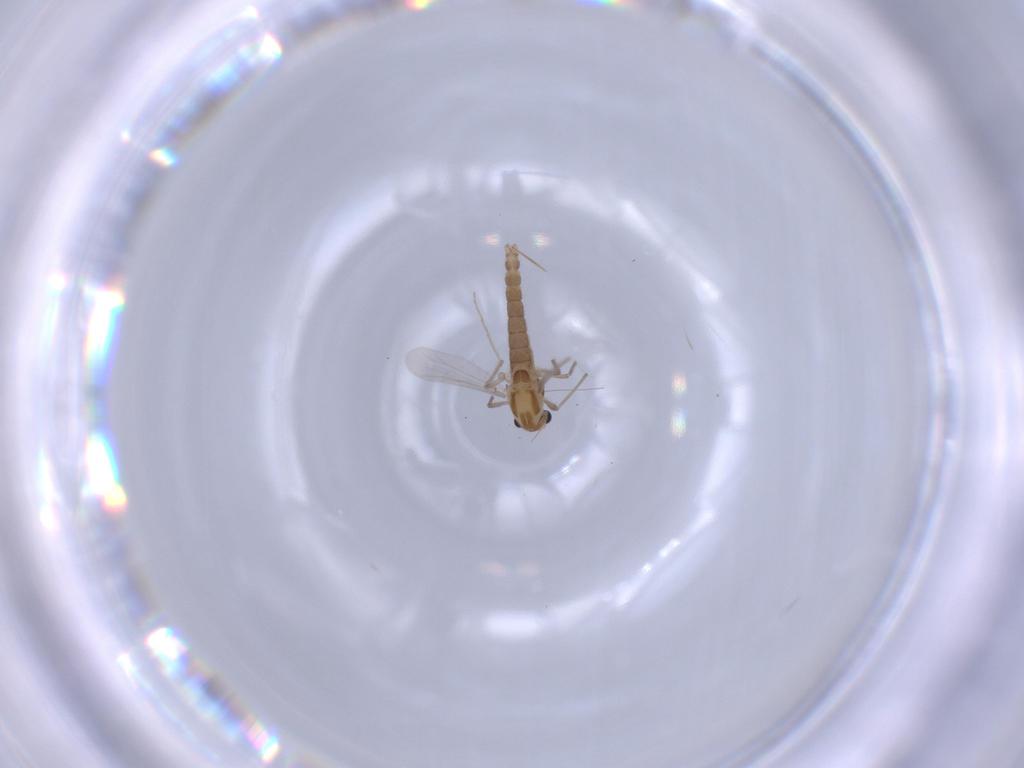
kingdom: Animalia
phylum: Arthropoda
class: Insecta
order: Diptera
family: Chironomidae
